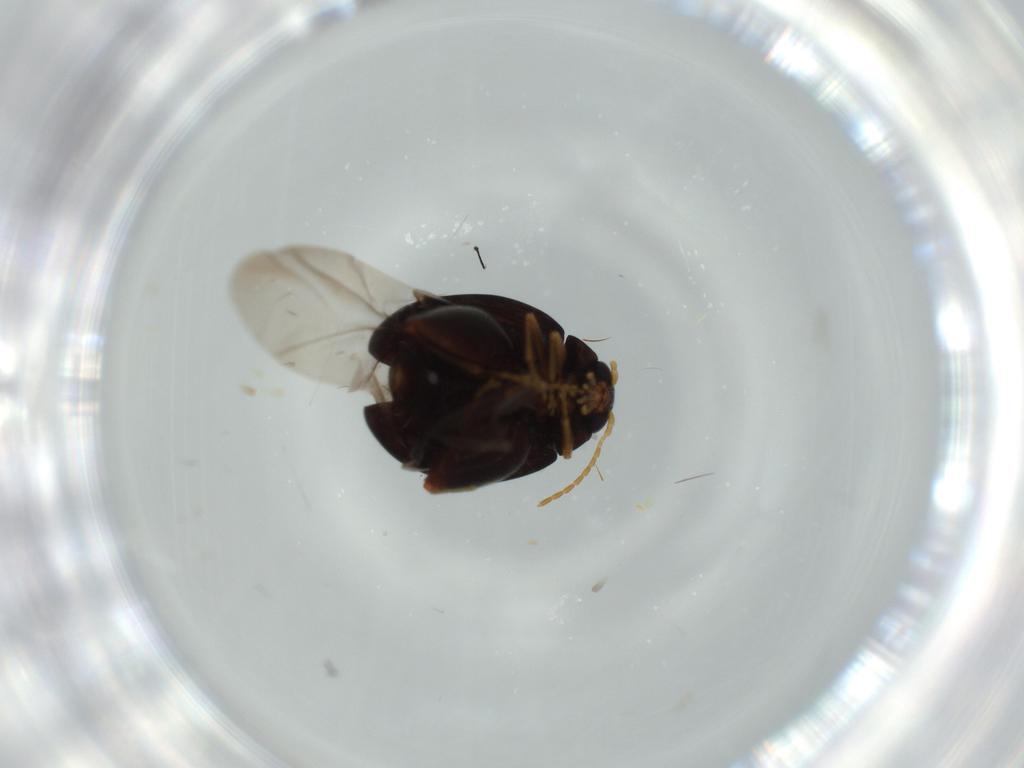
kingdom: Animalia
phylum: Arthropoda
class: Insecta
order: Coleoptera
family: Chrysomelidae
